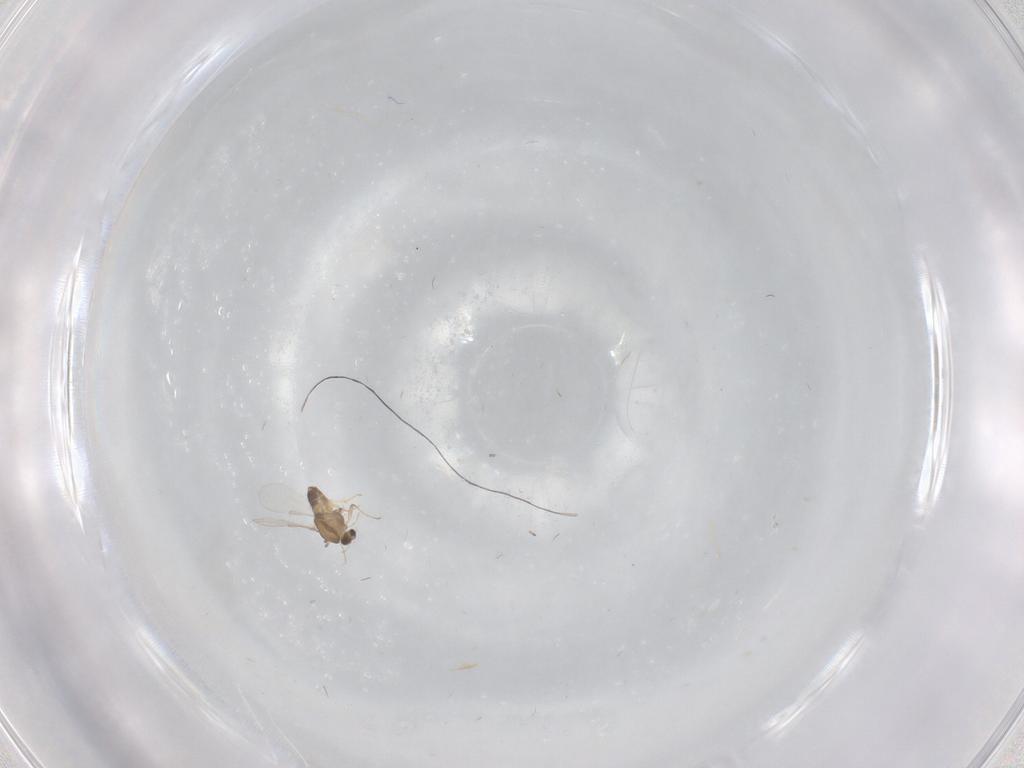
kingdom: Animalia
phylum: Arthropoda
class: Insecta
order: Diptera
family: Chironomidae
